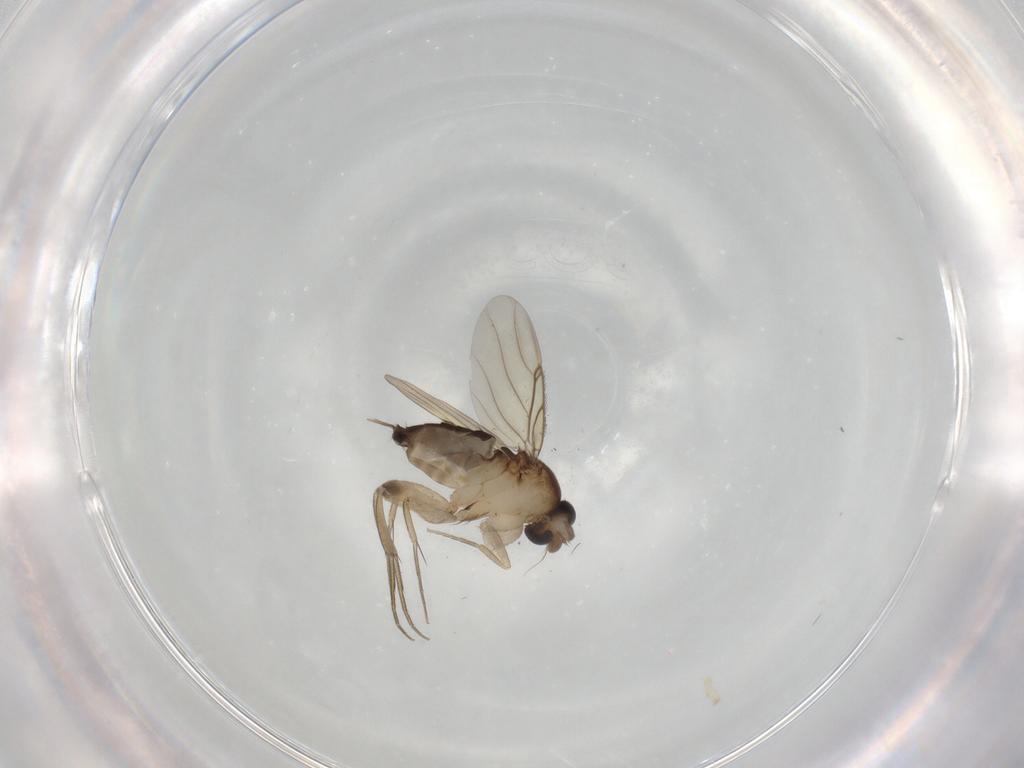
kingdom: Animalia
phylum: Arthropoda
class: Insecta
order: Diptera
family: Phoridae
